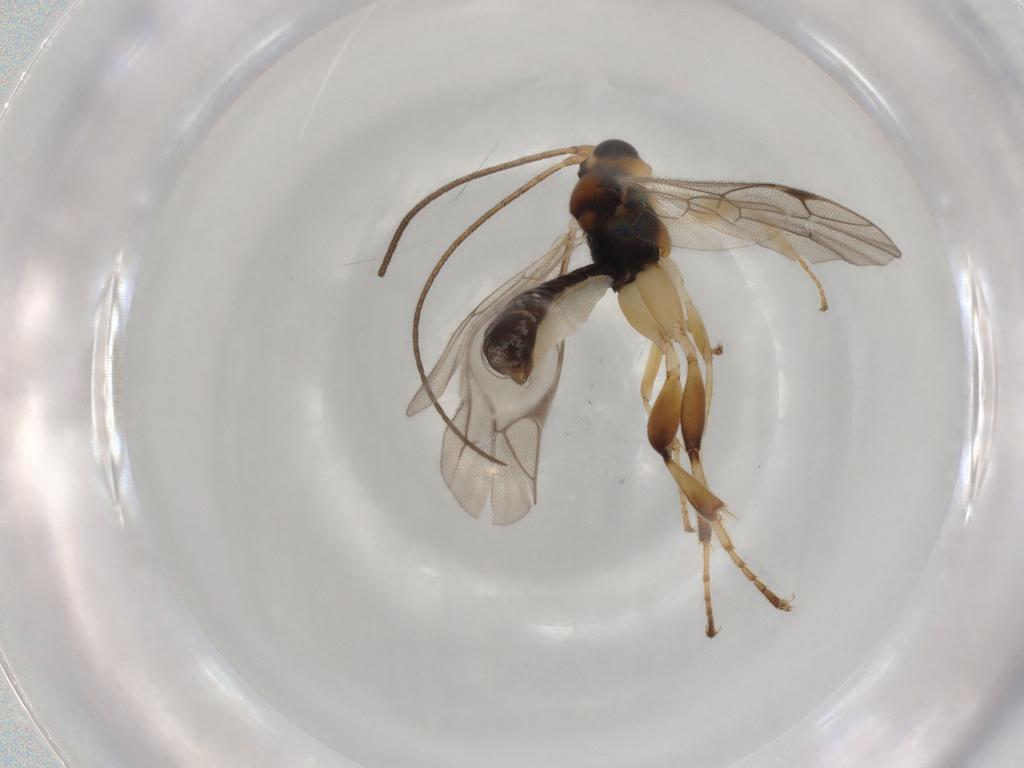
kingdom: Animalia
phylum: Arthropoda
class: Insecta
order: Hymenoptera
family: Ichneumonidae
